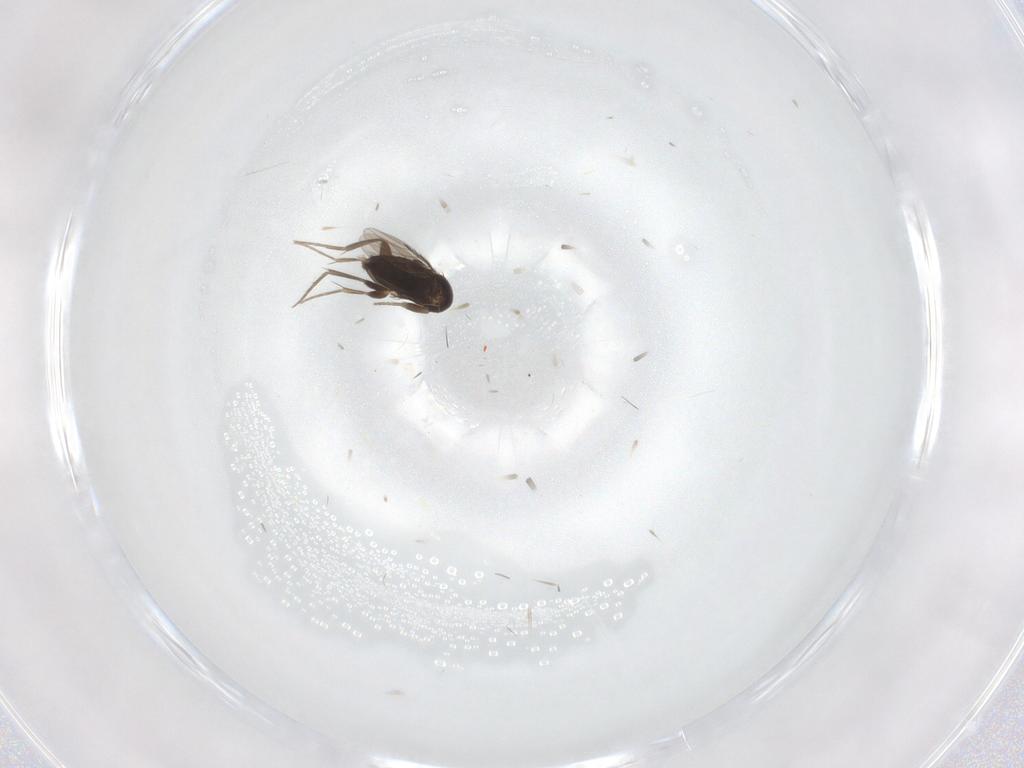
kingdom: Animalia
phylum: Arthropoda
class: Insecta
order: Diptera
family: Phoridae
